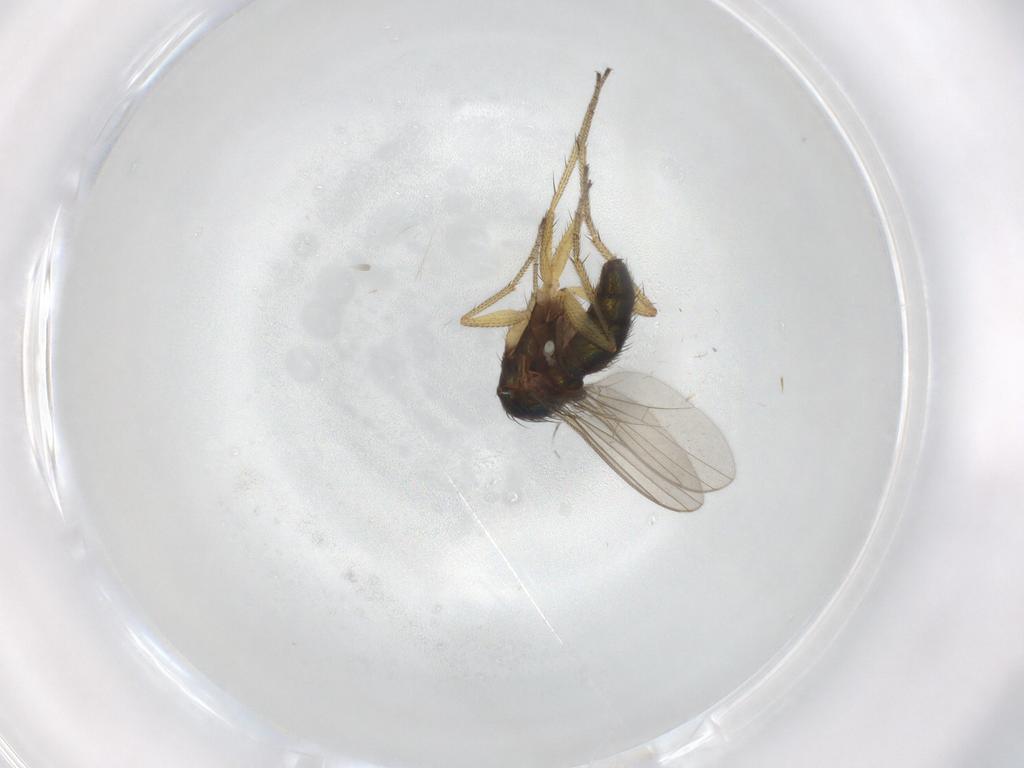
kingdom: Animalia
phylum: Arthropoda
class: Insecta
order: Diptera
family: Dolichopodidae
